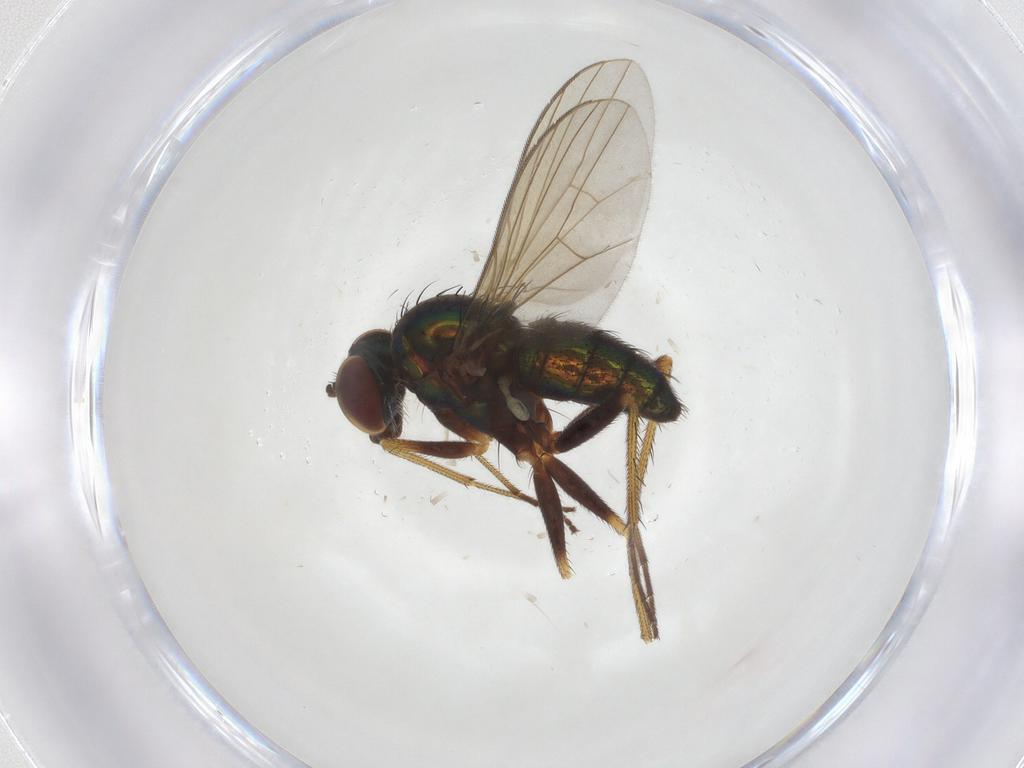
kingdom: Animalia
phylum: Arthropoda
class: Insecta
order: Diptera
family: Dolichopodidae
